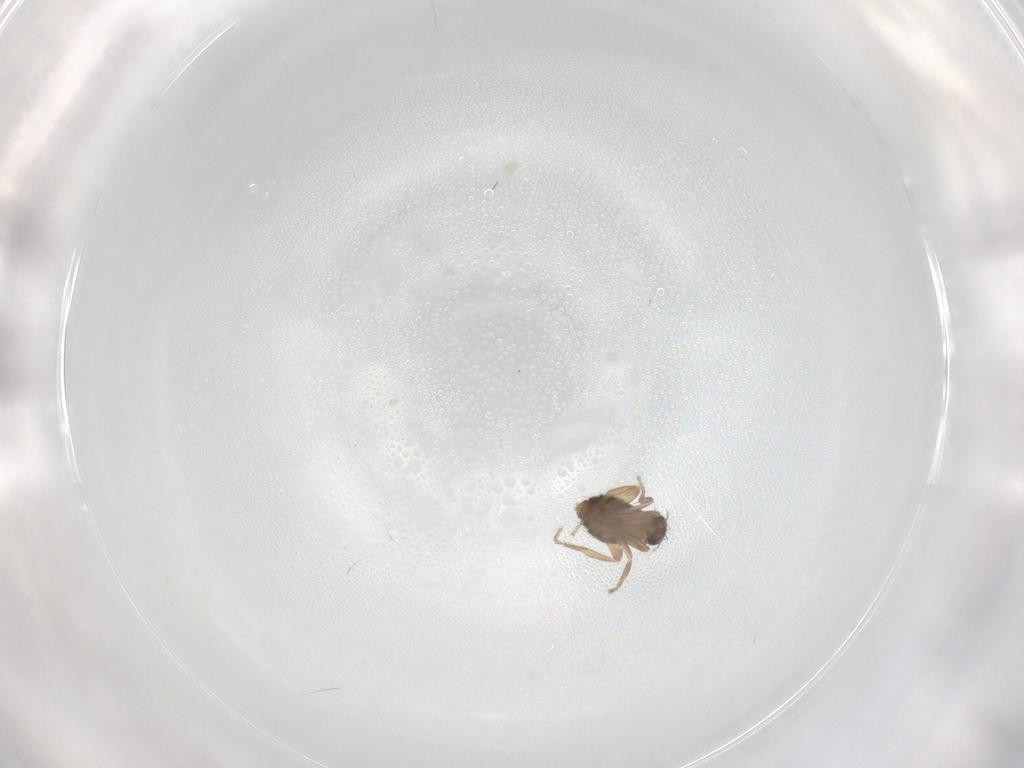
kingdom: Animalia
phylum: Arthropoda
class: Insecta
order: Diptera
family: Phoridae
